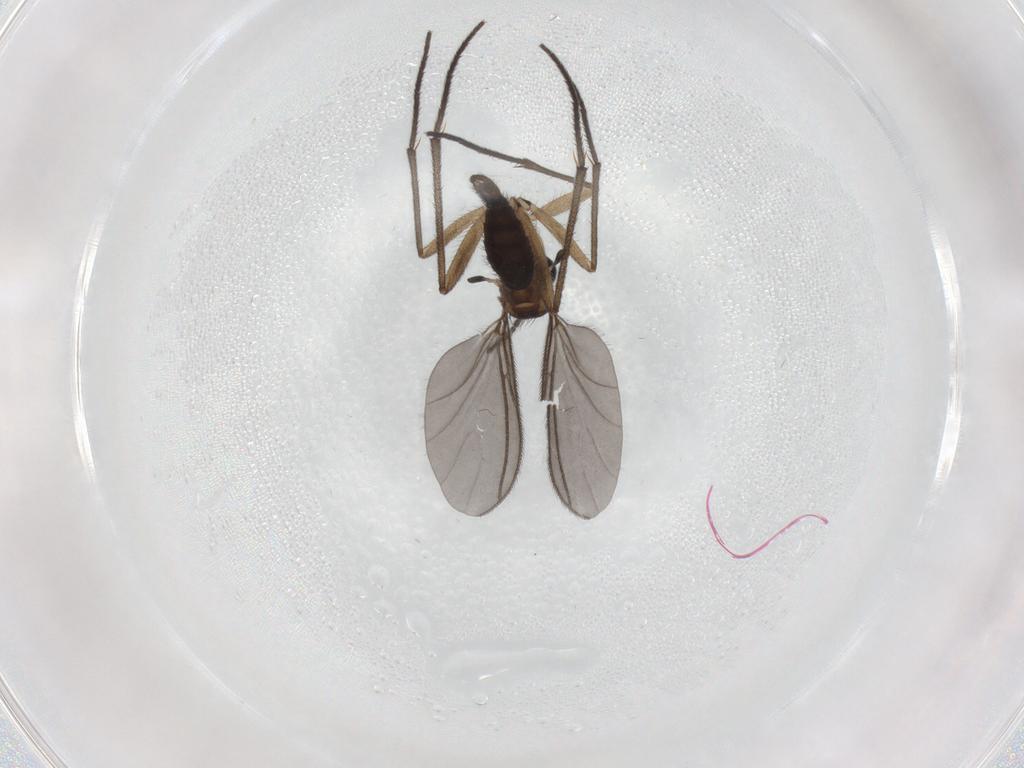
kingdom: Animalia
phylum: Arthropoda
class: Insecta
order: Diptera
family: Sciaridae
